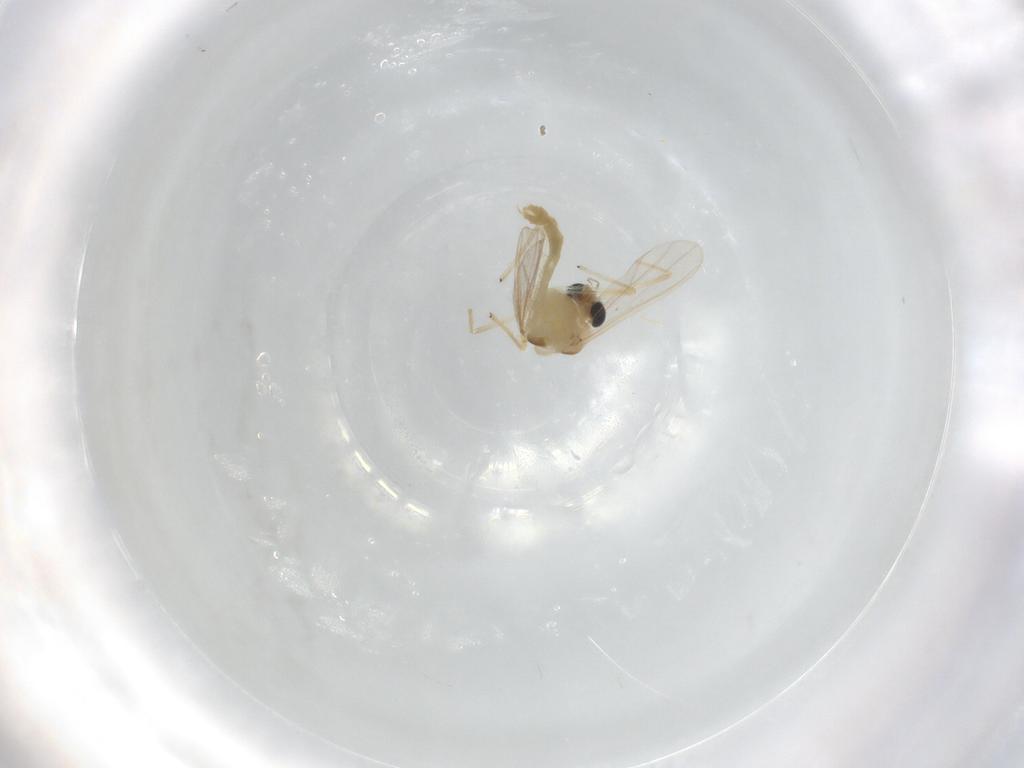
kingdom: Animalia
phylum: Arthropoda
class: Insecta
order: Diptera
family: Chironomidae
